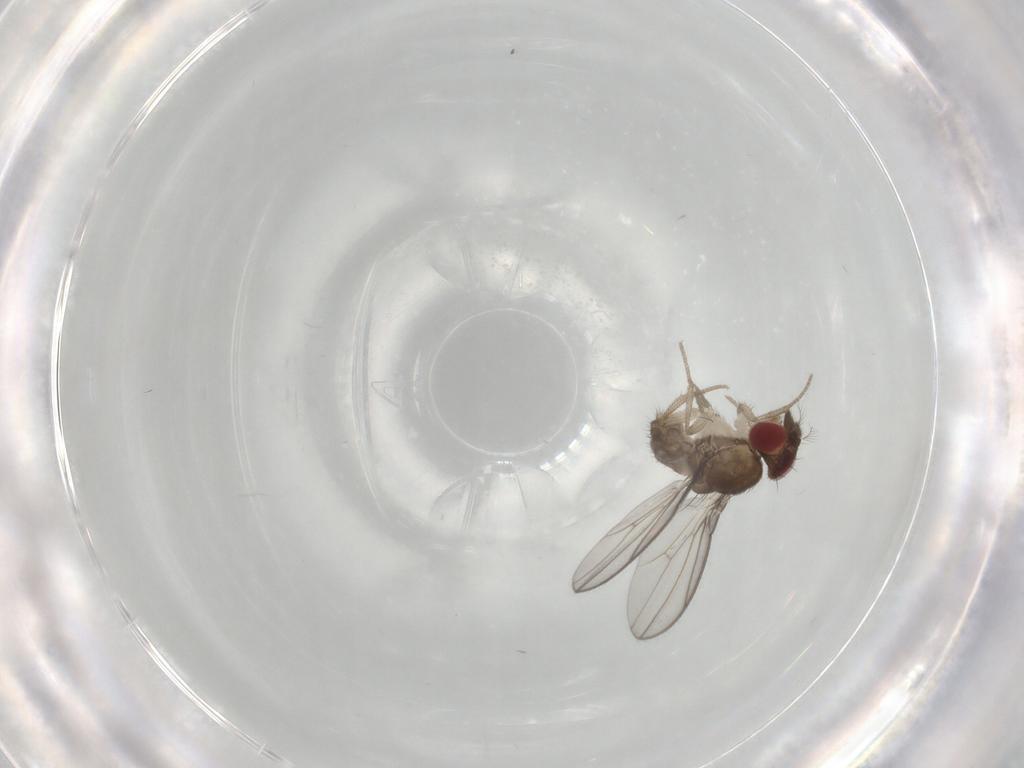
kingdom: Animalia
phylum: Arthropoda
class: Insecta
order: Diptera
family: Drosophilidae
